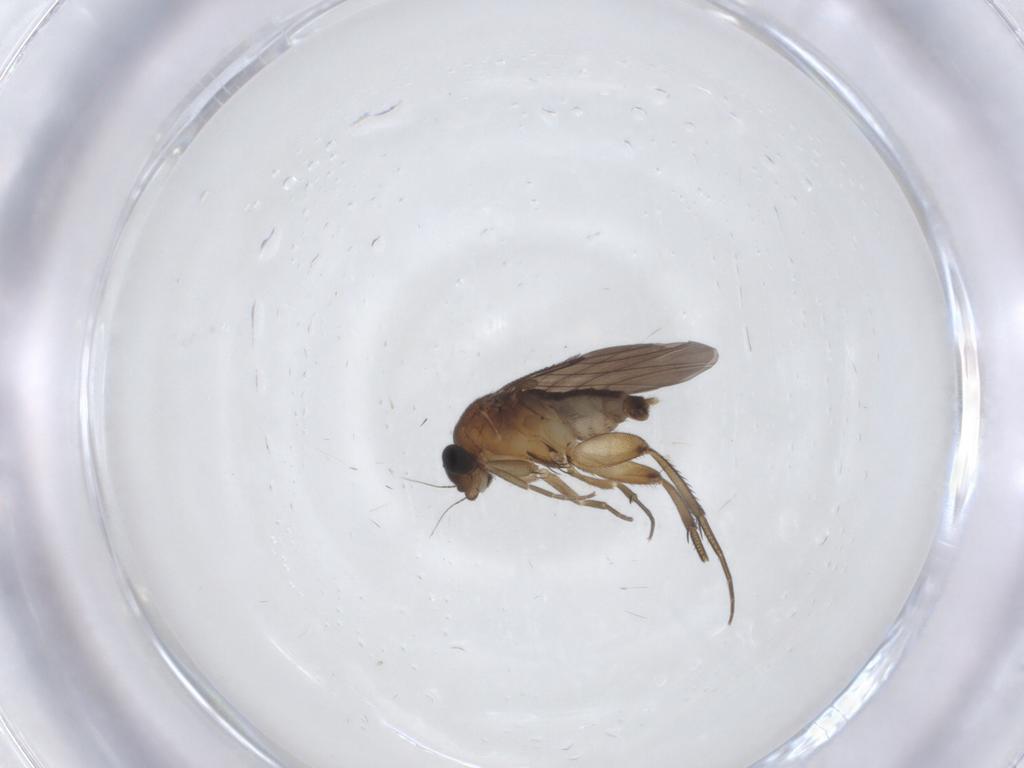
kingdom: Animalia
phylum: Arthropoda
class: Insecta
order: Diptera
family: Phoridae
